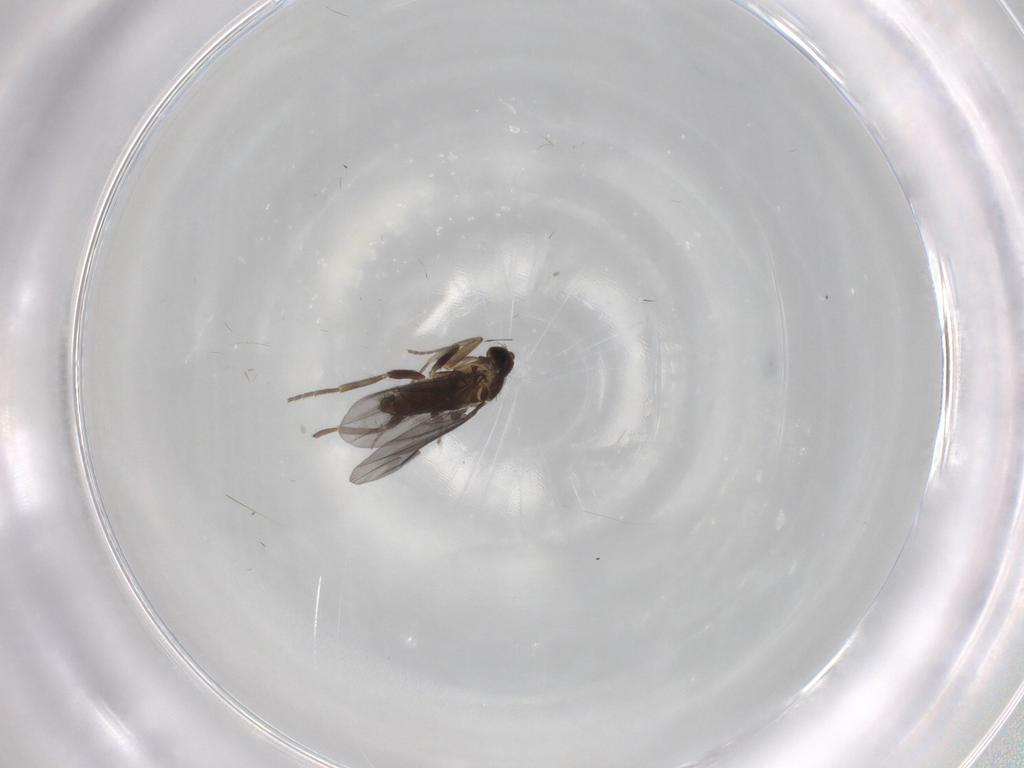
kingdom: Animalia
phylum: Arthropoda
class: Insecta
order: Diptera
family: Phoridae
